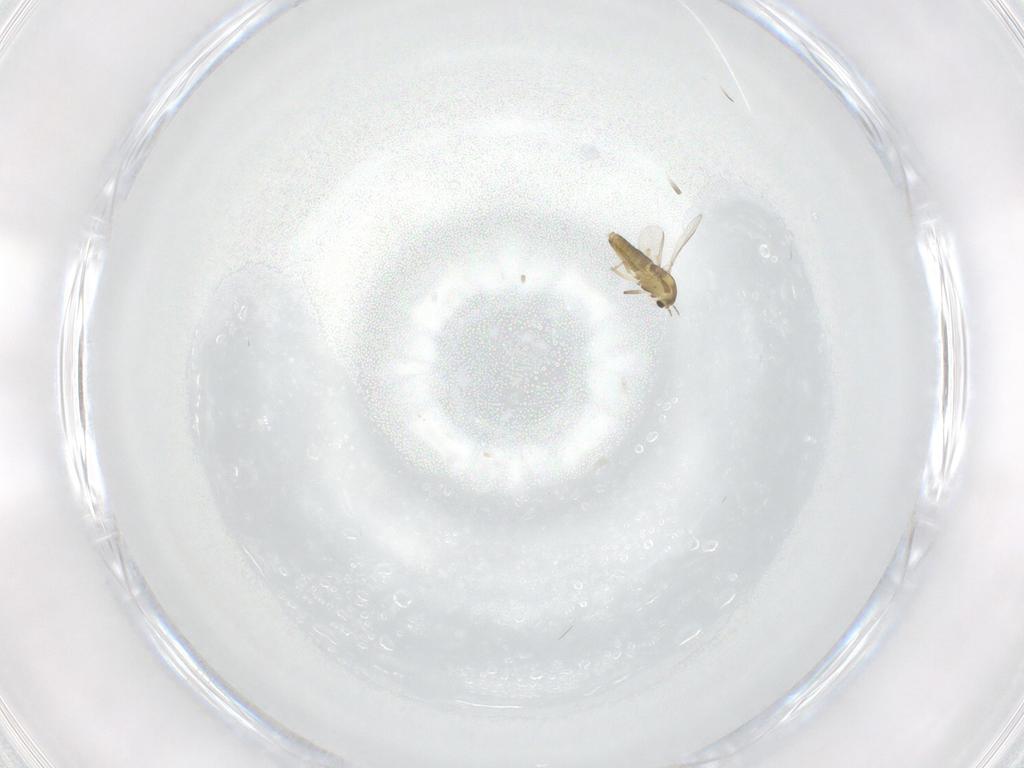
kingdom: Animalia
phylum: Arthropoda
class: Insecta
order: Diptera
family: Chironomidae
